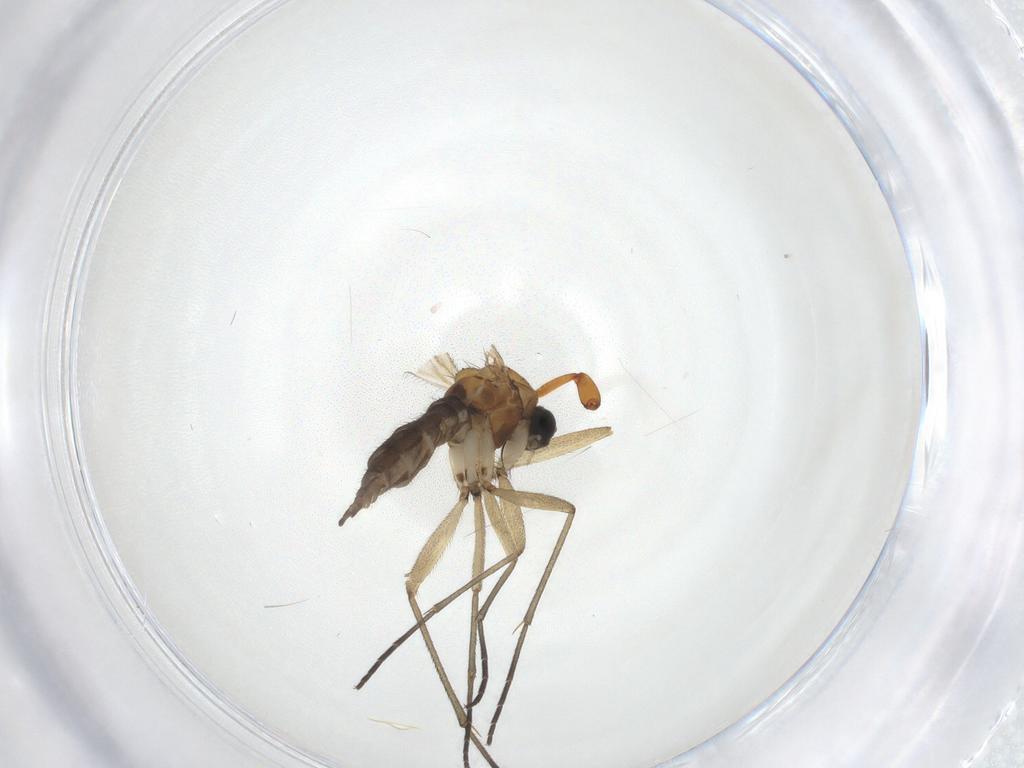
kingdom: Animalia
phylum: Arthropoda
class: Insecta
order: Diptera
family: Sciaridae
